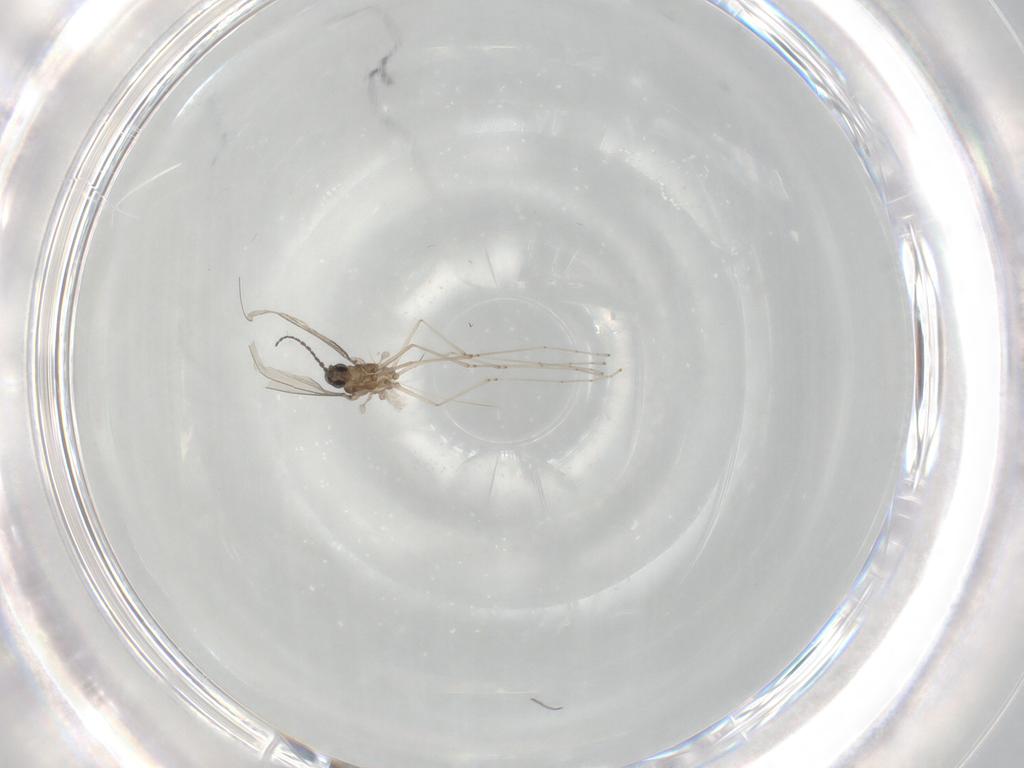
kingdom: Animalia
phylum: Arthropoda
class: Insecta
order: Diptera
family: Cecidomyiidae
